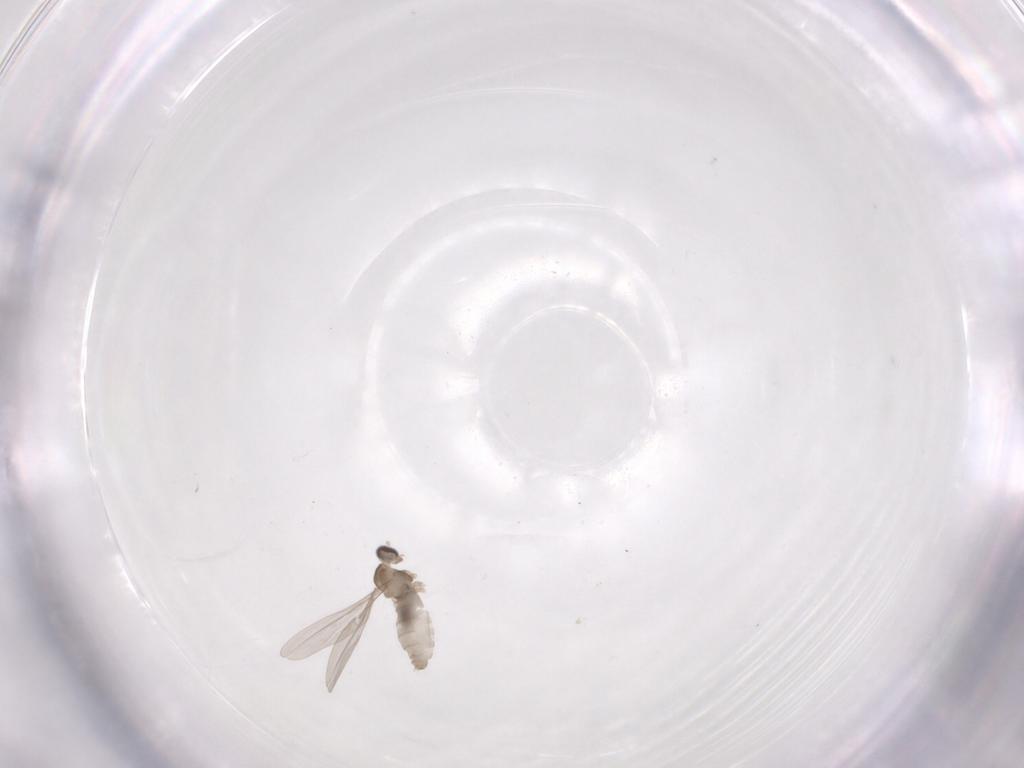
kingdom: Animalia
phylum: Arthropoda
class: Insecta
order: Diptera
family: Cecidomyiidae
